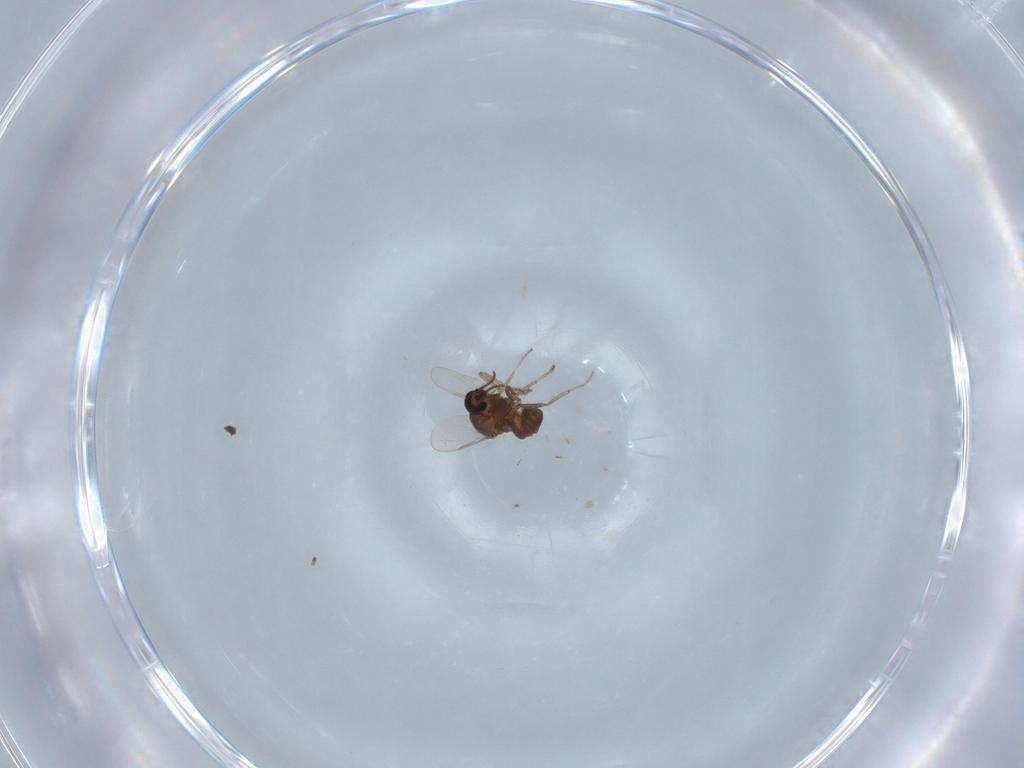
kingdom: Animalia
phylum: Arthropoda
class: Insecta
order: Diptera
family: Ceratopogonidae
